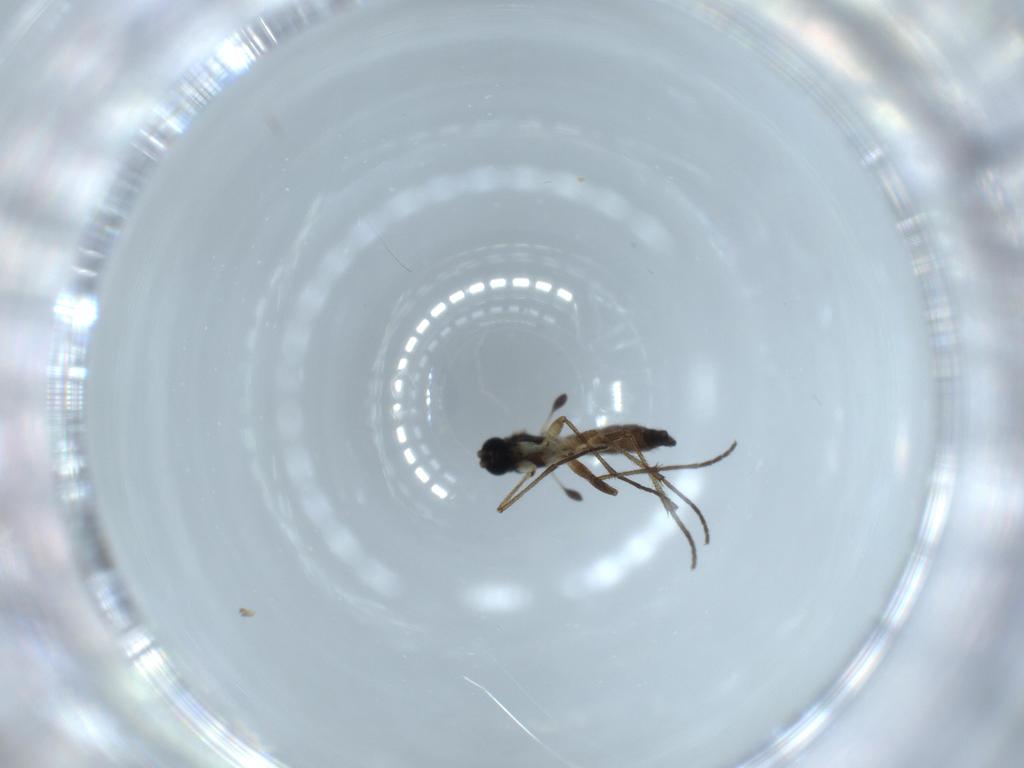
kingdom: Animalia
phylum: Arthropoda
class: Insecta
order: Diptera
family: Sciaridae
